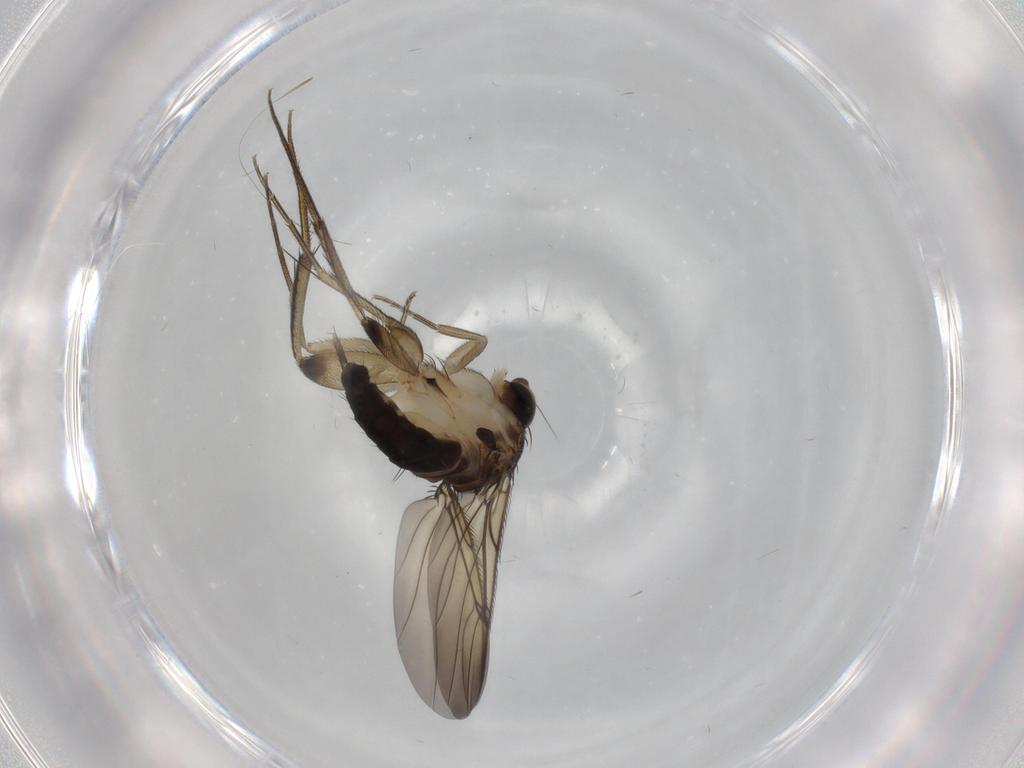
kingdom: Animalia
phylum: Arthropoda
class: Insecta
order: Diptera
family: Phoridae
